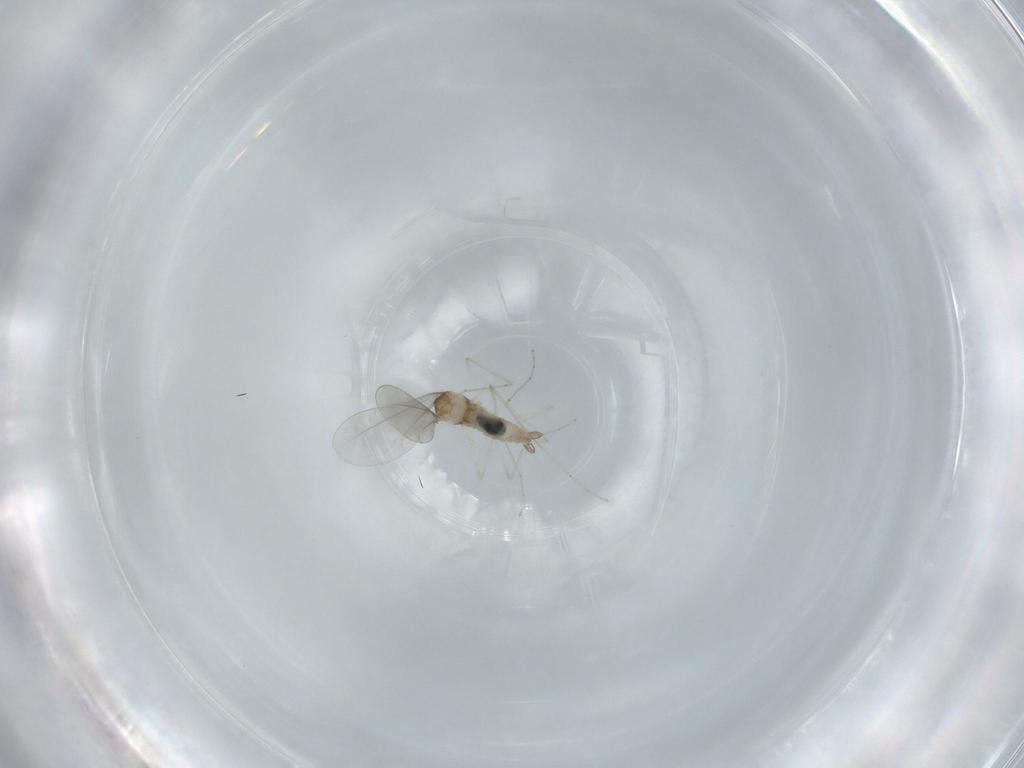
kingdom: Animalia
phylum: Arthropoda
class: Insecta
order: Diptera
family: Cecidomyiidae
